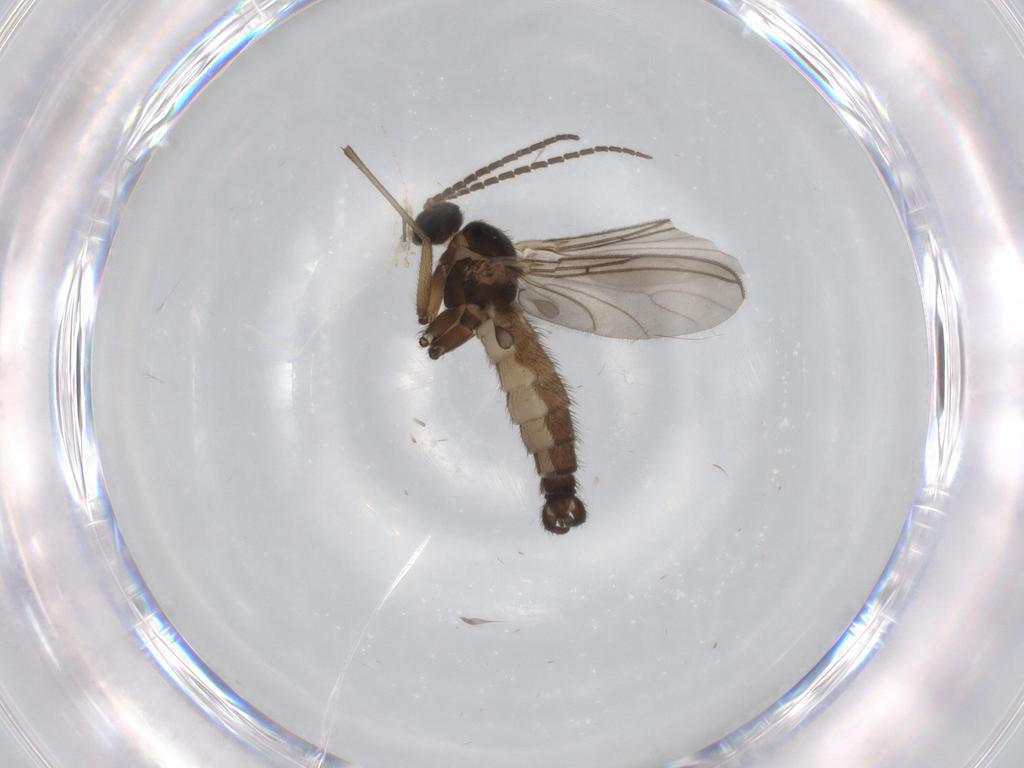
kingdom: Animalia
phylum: Arthropoda
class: Insecta
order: Diptera
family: Sciaridae
